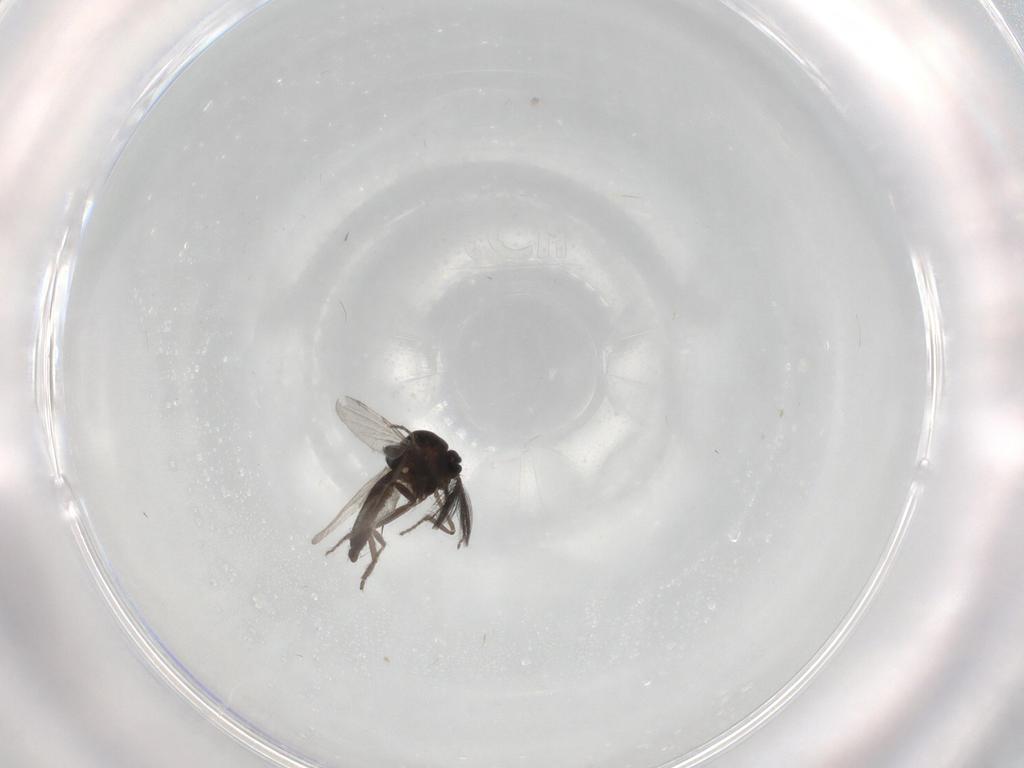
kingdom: Animalia
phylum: Arthropoda
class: Insecta
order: Diptera
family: Ceratopogonidae
